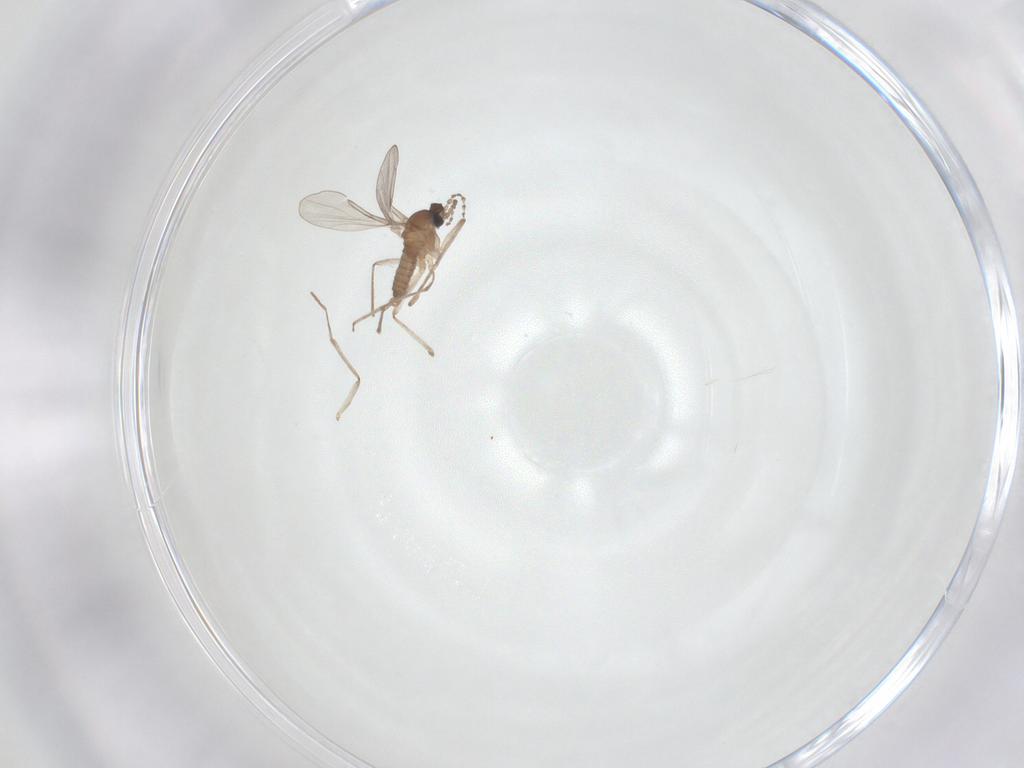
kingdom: Animalia
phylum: Arthropoda
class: Insecta
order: Diptera
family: Cecidomyiidae
